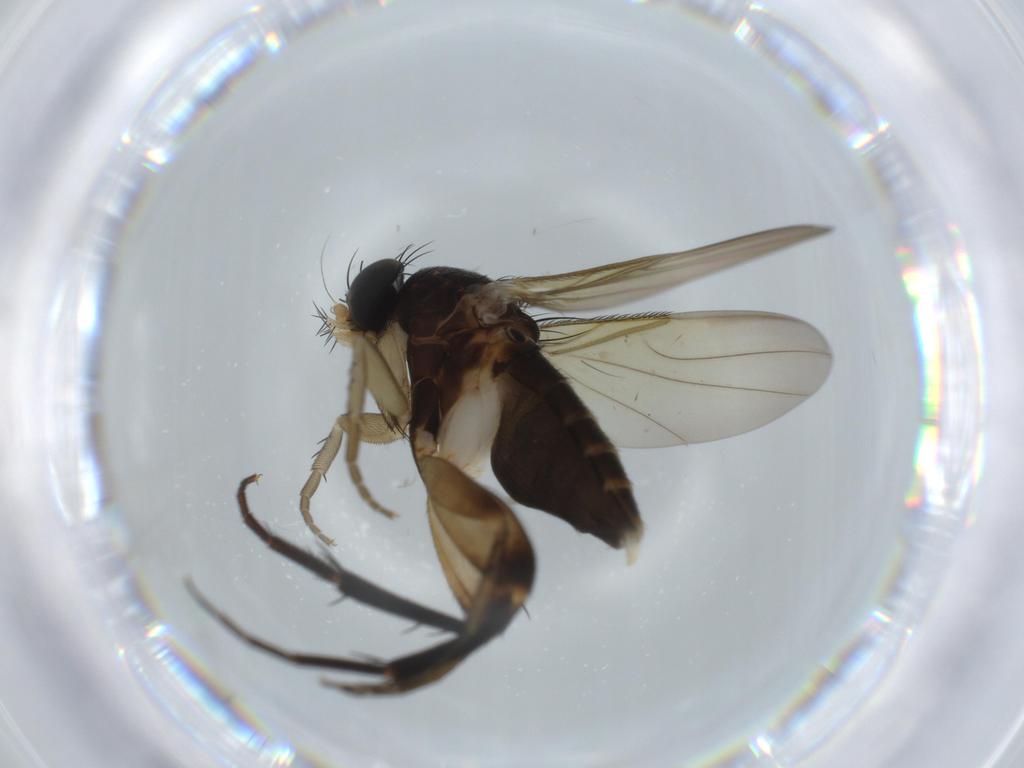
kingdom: Animalia
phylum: Arthropoda
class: Insecta
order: Diptera
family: Phoridae
